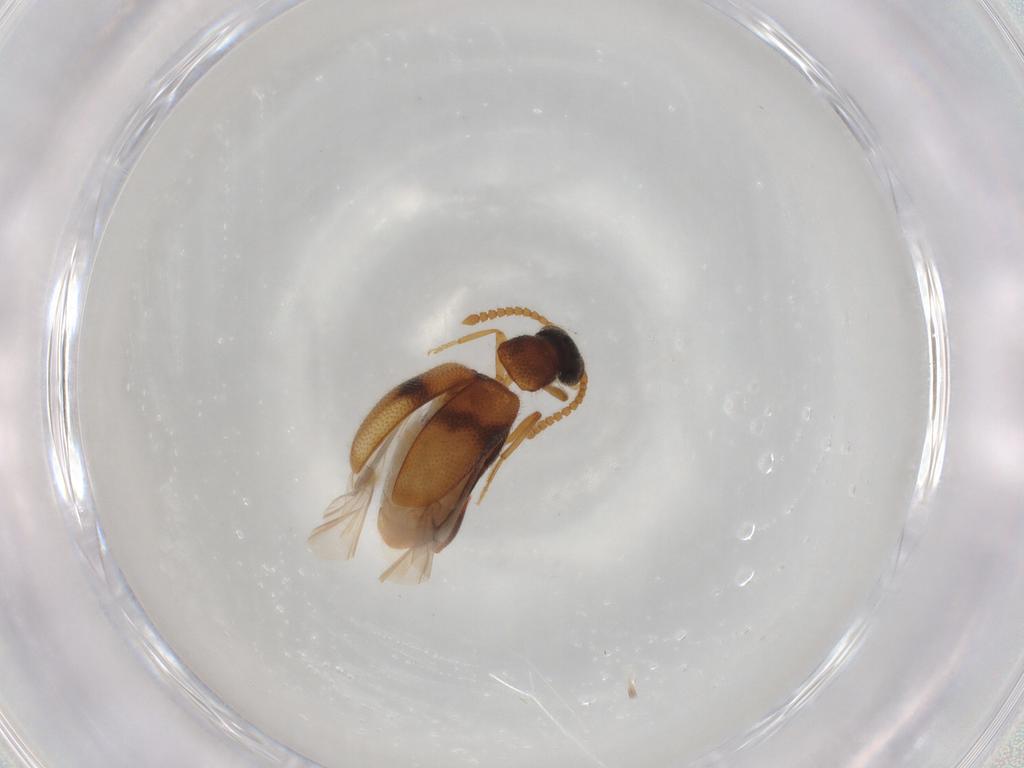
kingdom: Animalia
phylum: Arthropoda
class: Insecta
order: Coleoptera
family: Aderidae
